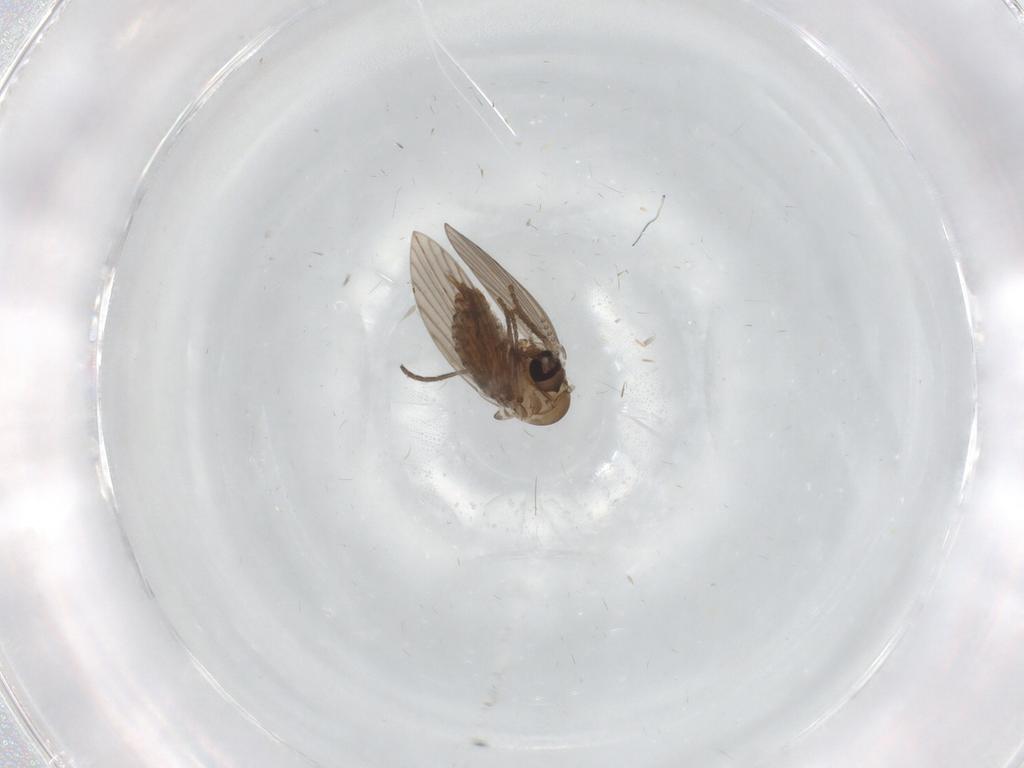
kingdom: Animalia
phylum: Arthropoda
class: Insecta
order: Diptera
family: Psychodidae
